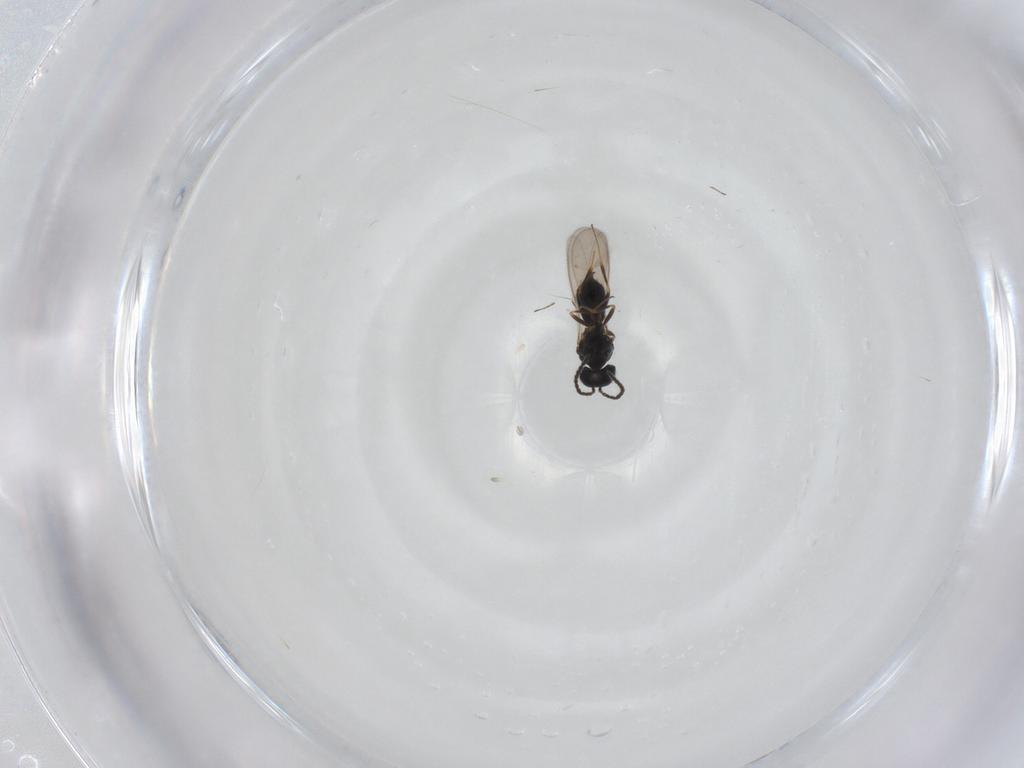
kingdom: Animalia
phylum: Arthropoda
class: Insecta
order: Hymenoptera
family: Scelionidae
